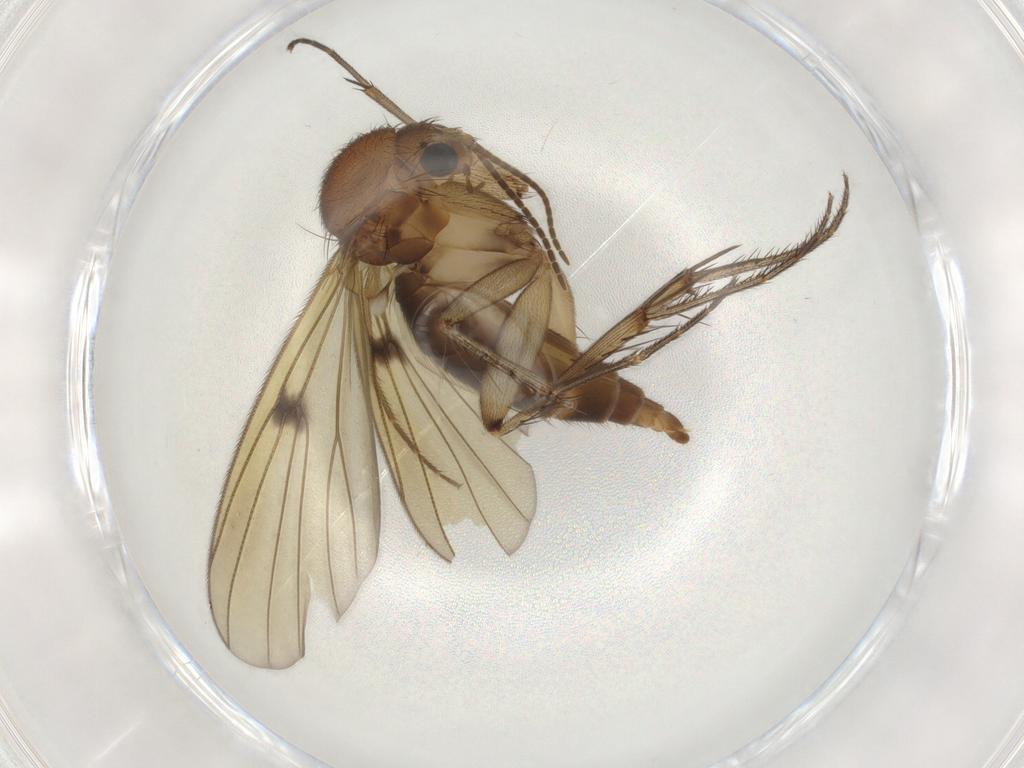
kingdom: Animalia
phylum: Arthropoda
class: Insecta
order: Diptera
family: Mycetophilidae
